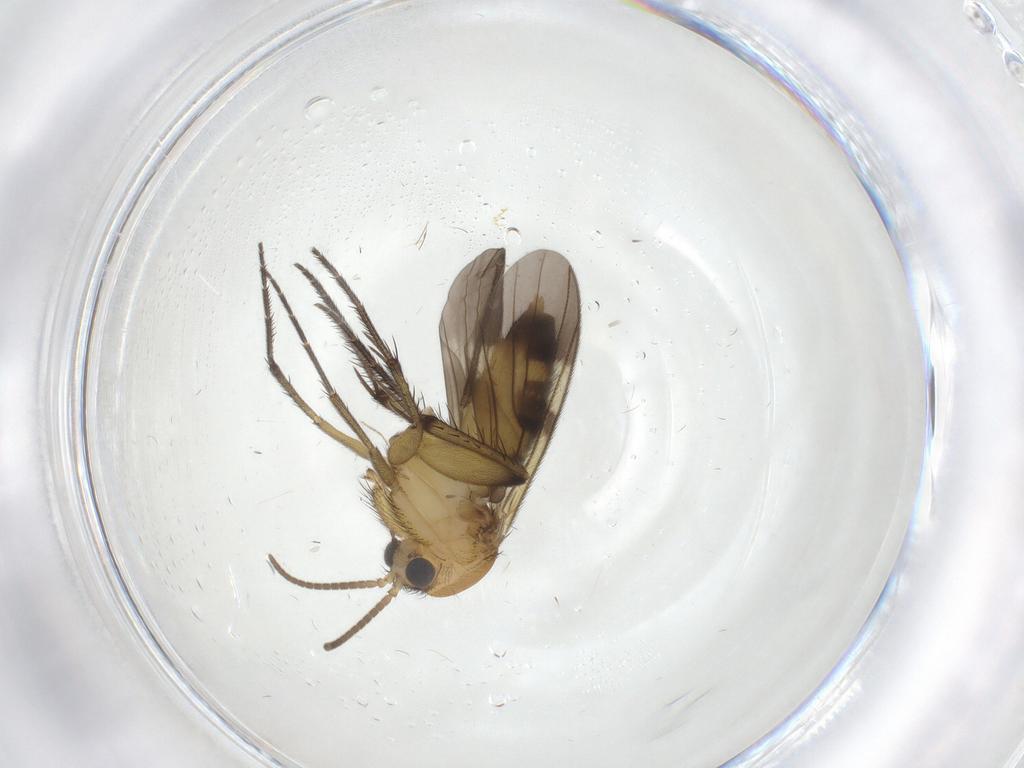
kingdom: Animalia
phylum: Arthropoda
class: Insecta
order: Diptera
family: Mycetophilidae
